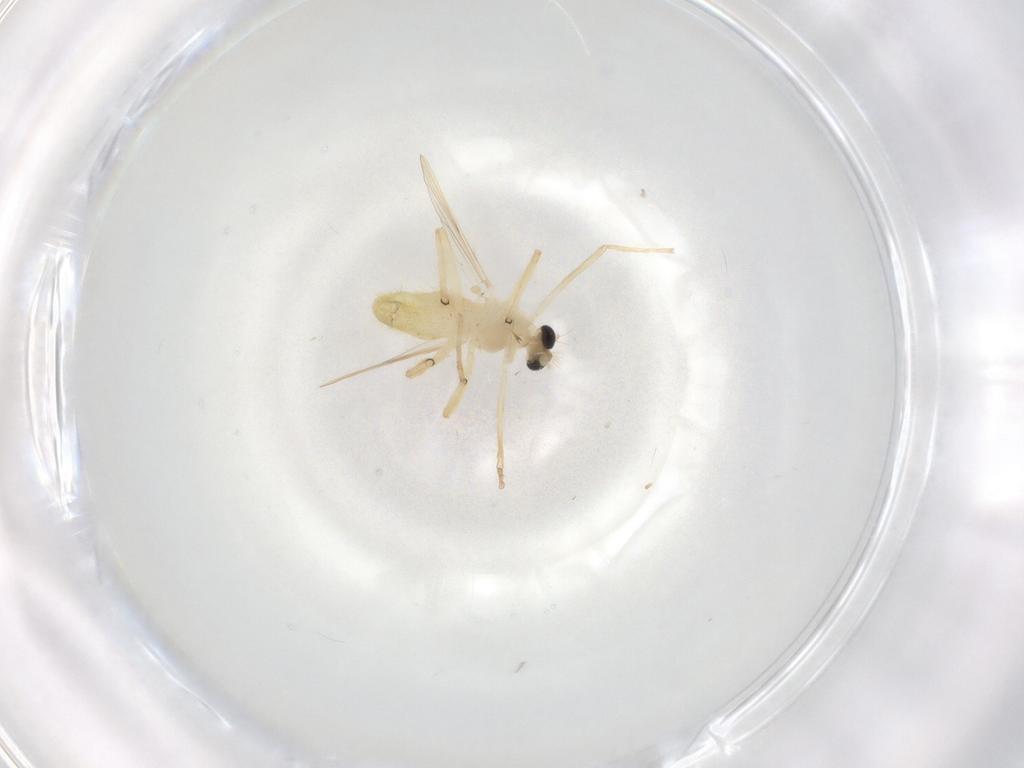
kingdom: Animalia
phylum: Arthropoda
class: Insecta
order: Diptera
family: Chironomidae
